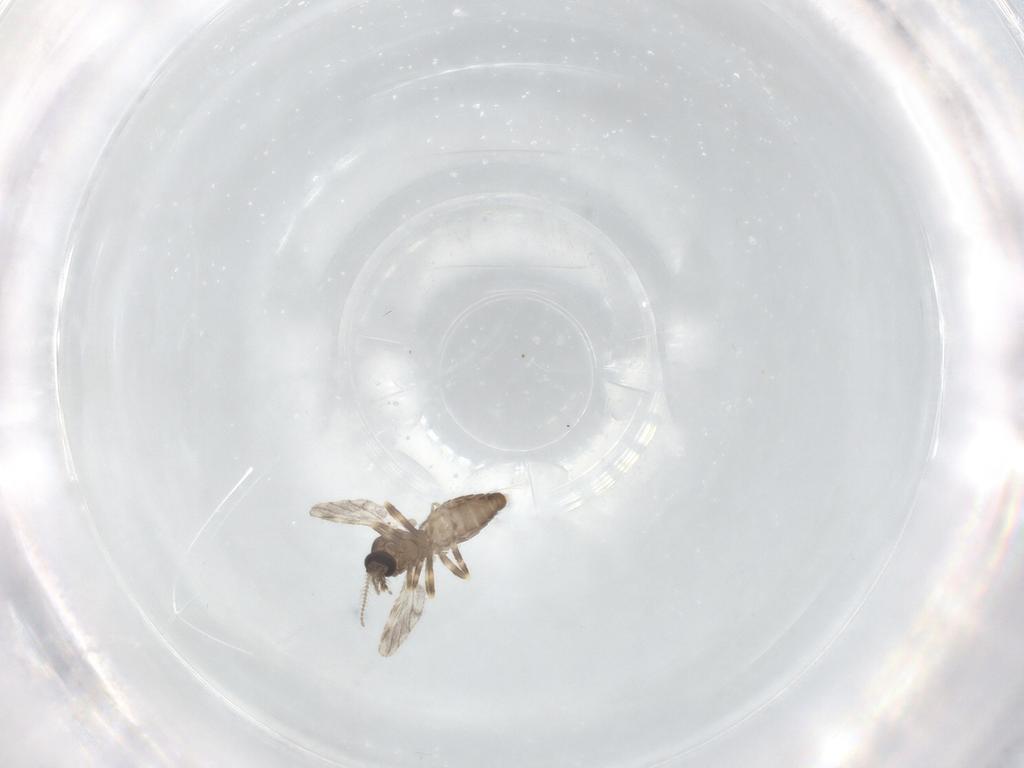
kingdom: Animalia
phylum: Arthropoda
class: Insecta
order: Diptera
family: Ceratopogonidae
